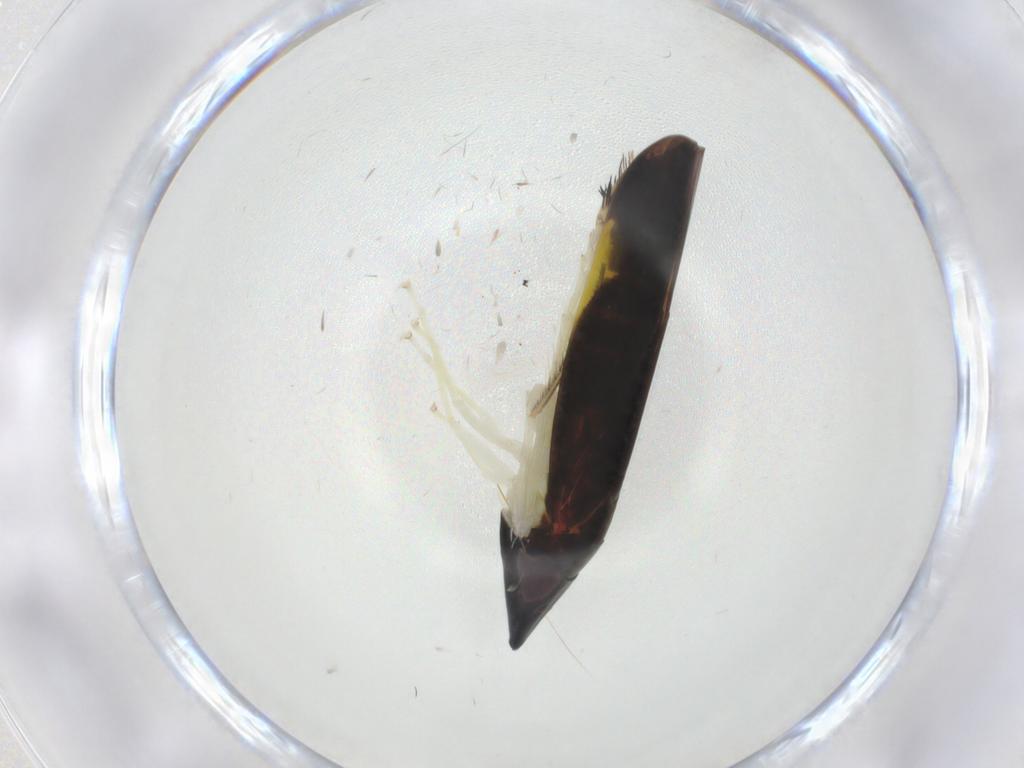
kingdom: Animalia
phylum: Arthropoda
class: Insecta
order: Hemiptera
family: Cicadellidae
